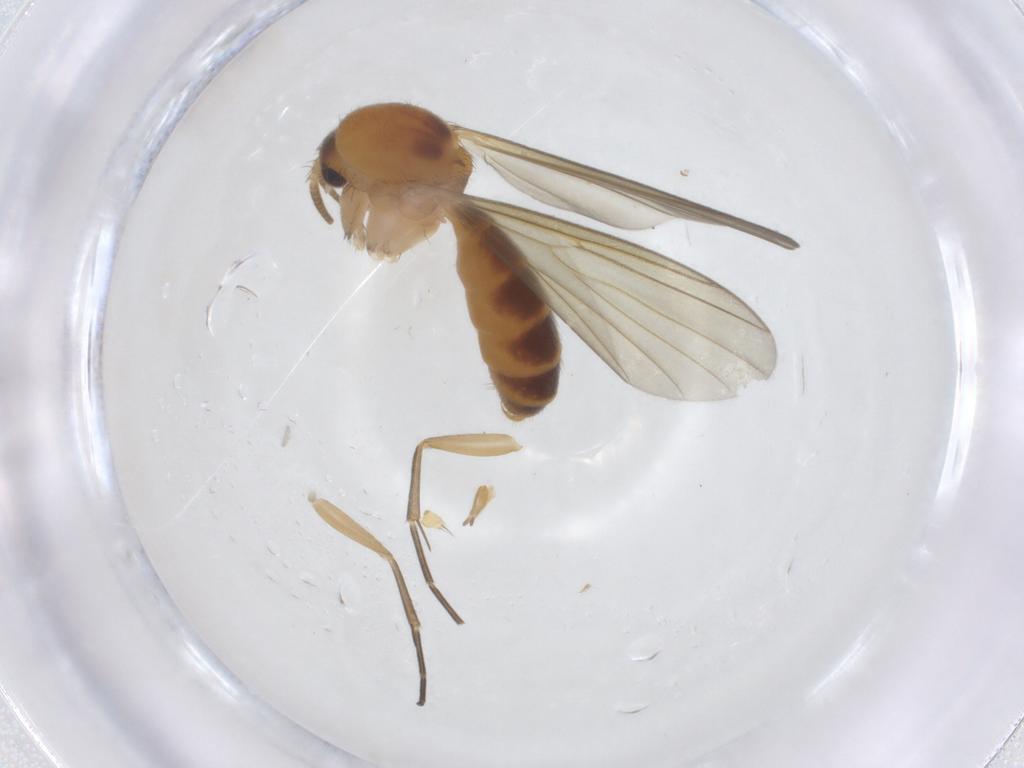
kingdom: Animalia
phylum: Arthropoda
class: Insecta
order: Diptera
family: Mycetophilidae
